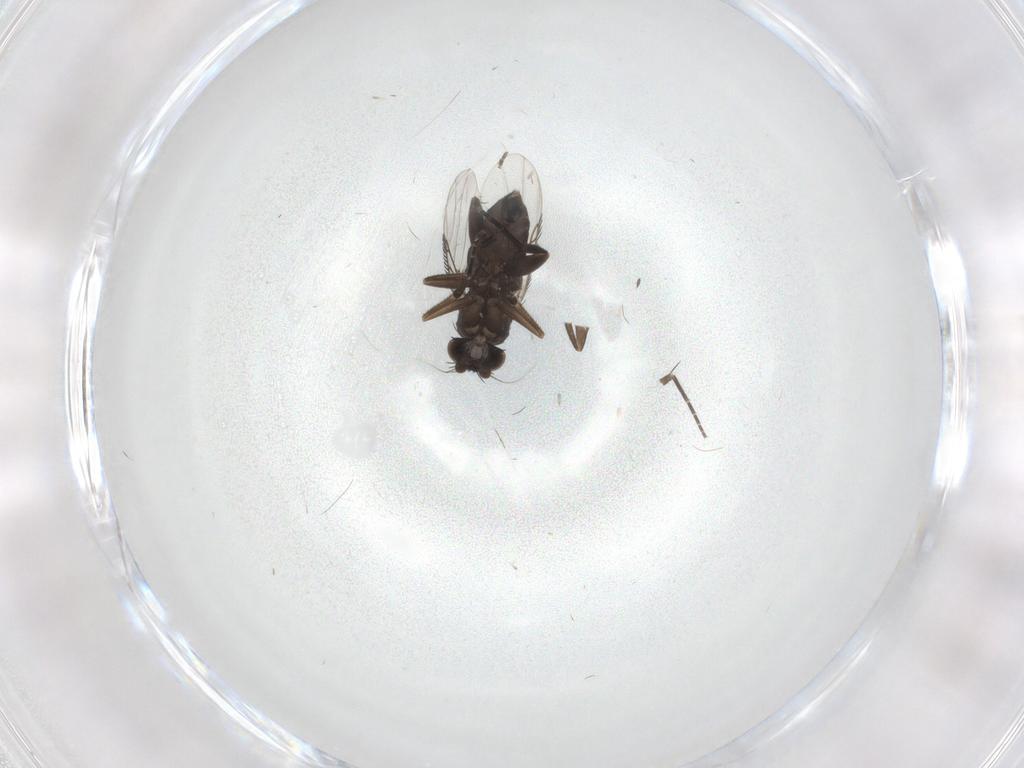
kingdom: Animalia
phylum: Arthropoda
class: Insecta
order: Diptera
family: Phoridae
